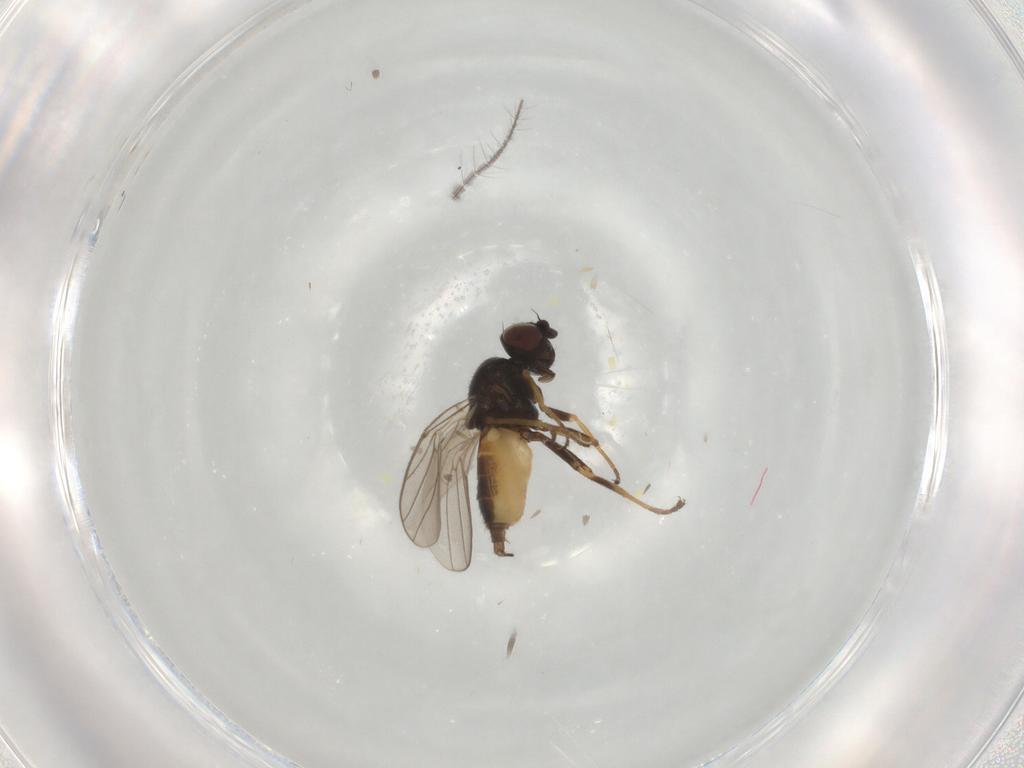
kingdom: Animalia
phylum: Arthropoda
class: Insecta
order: Diptera
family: Chloropidae
